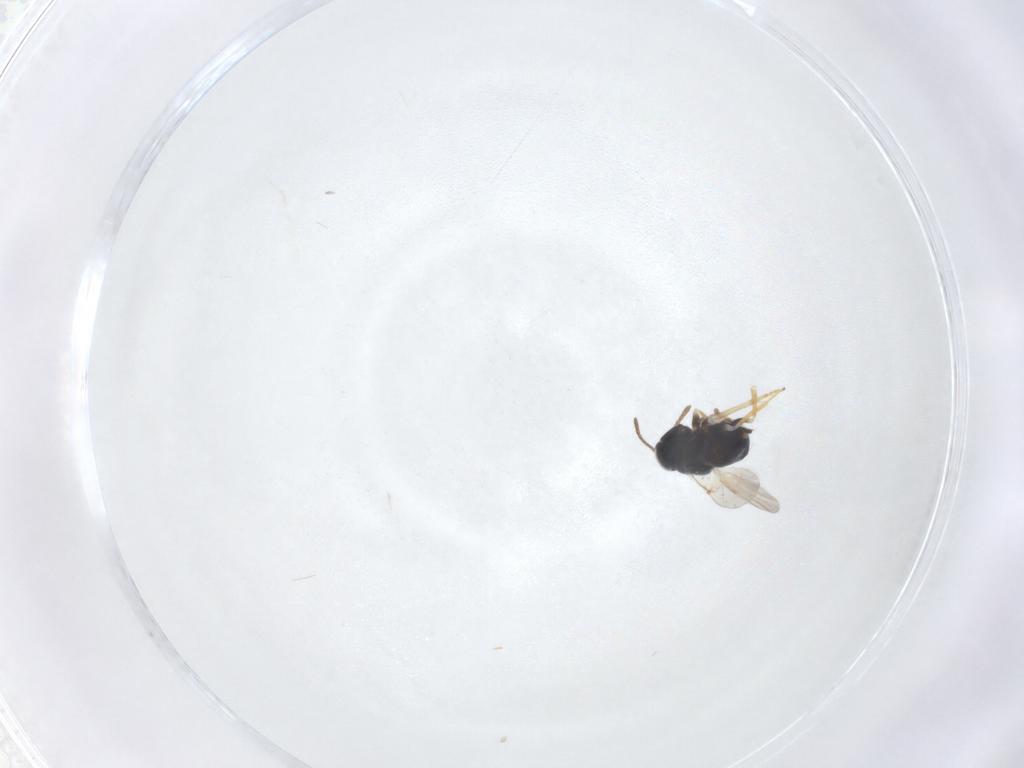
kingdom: Animalia
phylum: Arthropoda
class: Insecta
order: Hymenoptera
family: Encyrtidae
